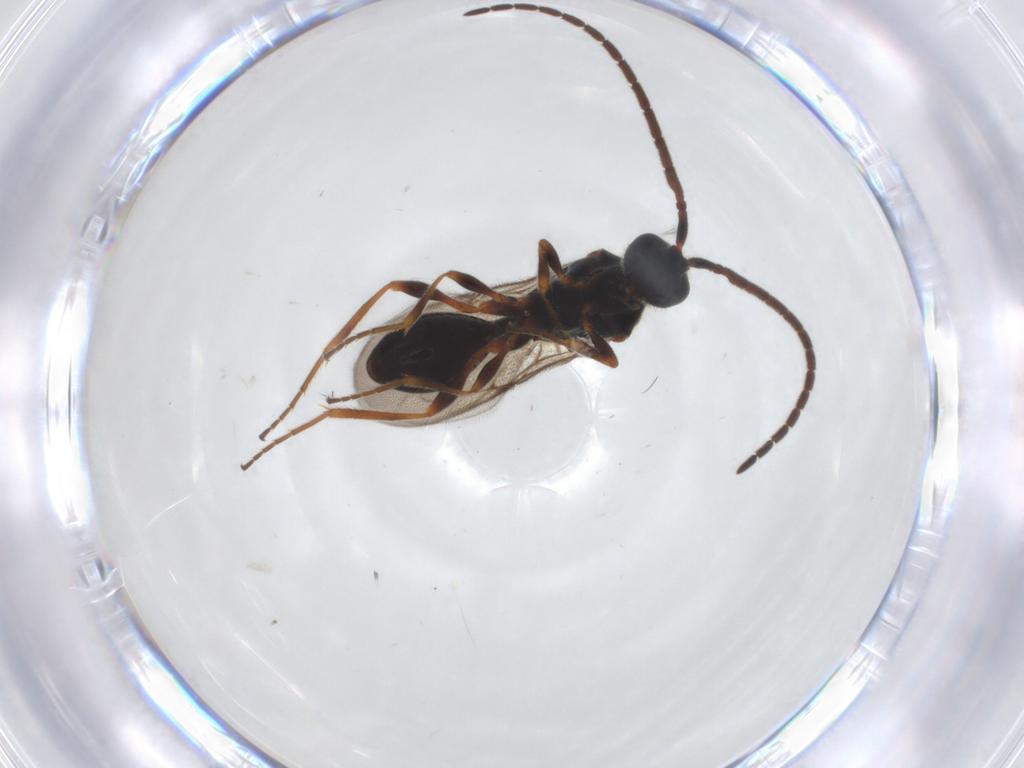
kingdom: Animalia
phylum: Arthropoda
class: Insecta
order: Hymenoptera
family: Diapriidae
